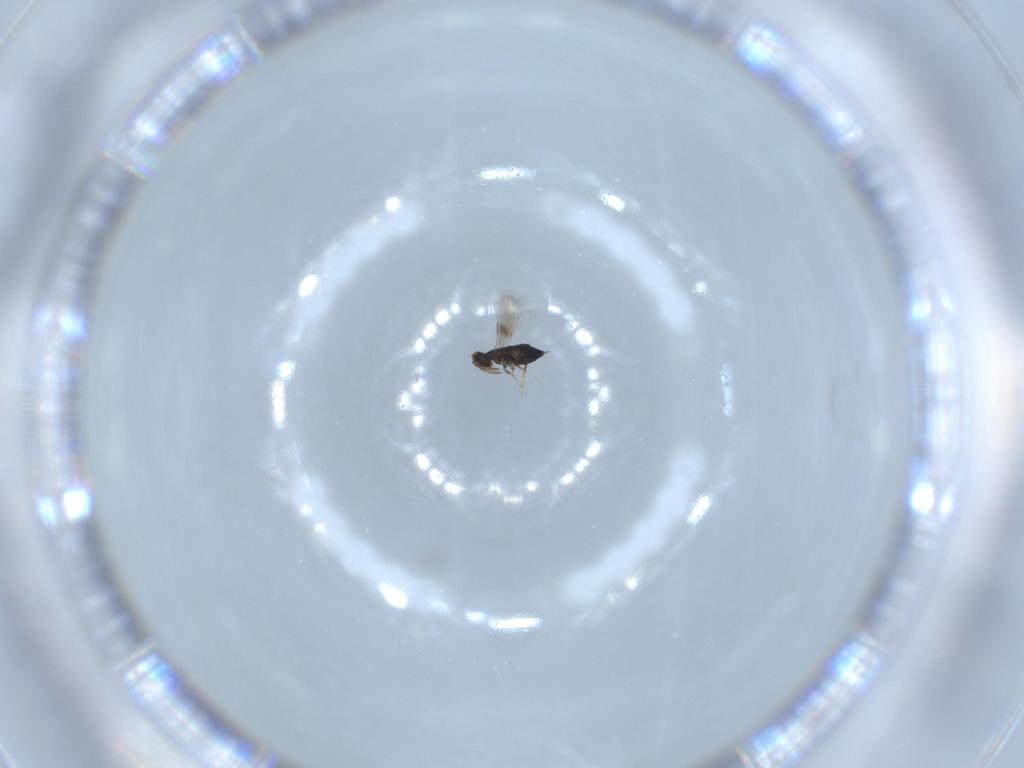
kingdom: Animalia
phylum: Arthropoda
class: Insecta
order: Hymenoptera
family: Signiphoridae
